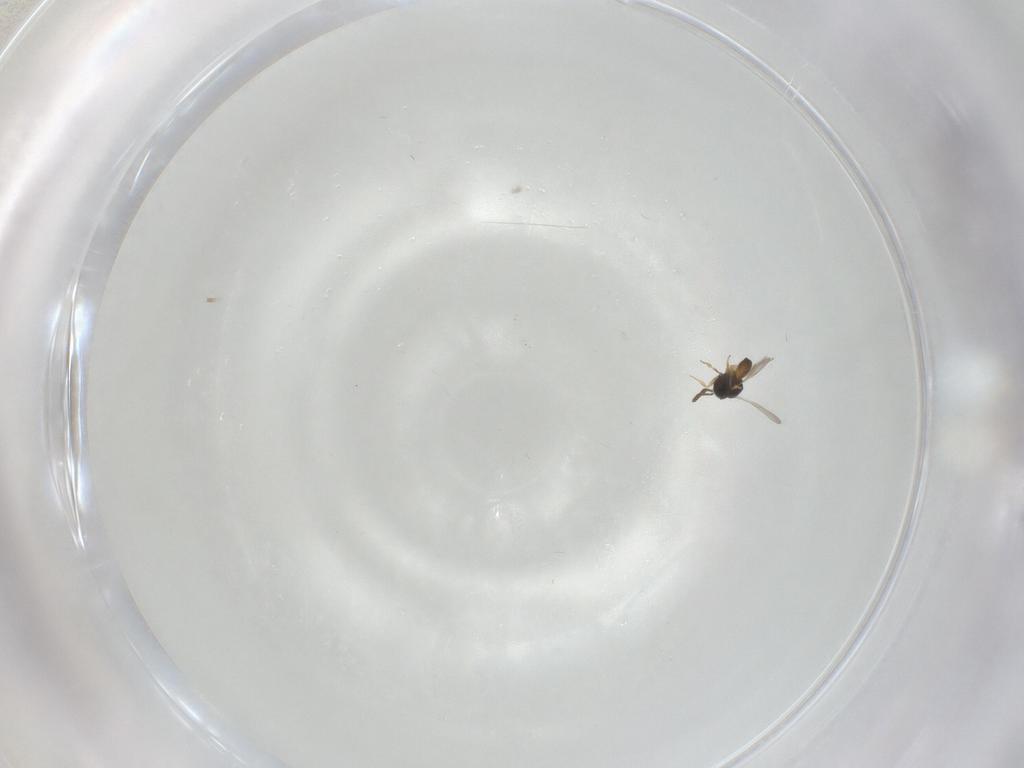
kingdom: Animalia
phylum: Arthropoda
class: Insecta
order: Hymenoptera
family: Scelionidae
